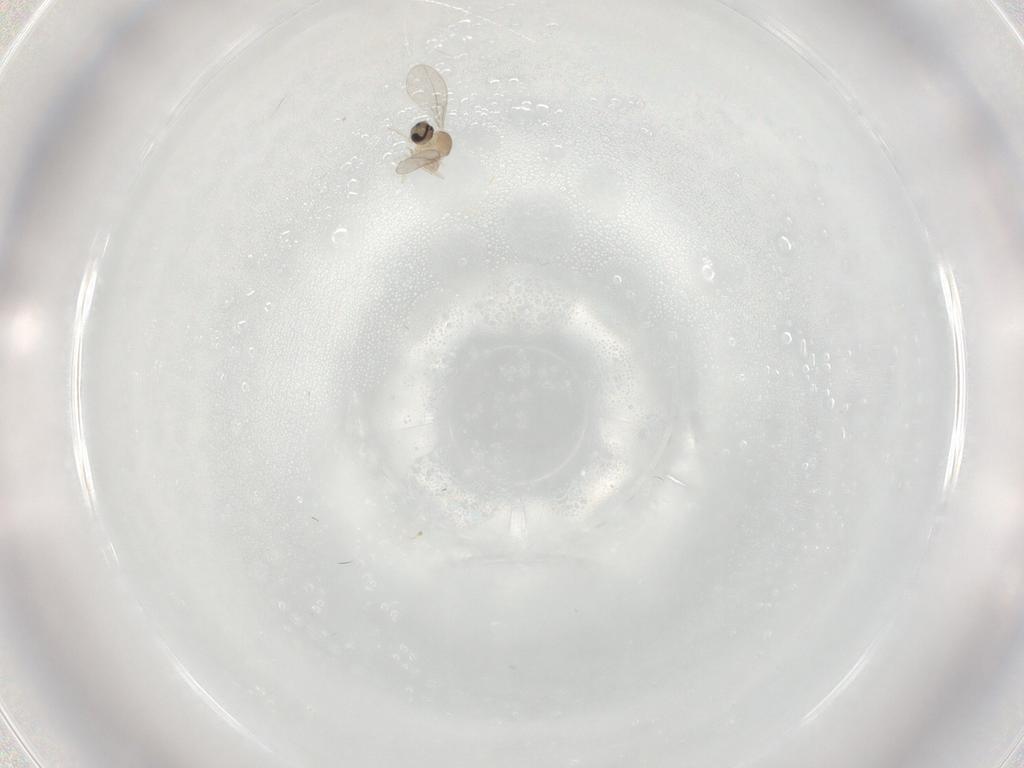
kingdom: Animalia
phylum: Arthropoda
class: Insecta
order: Diptera
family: Cecidomyiidae
